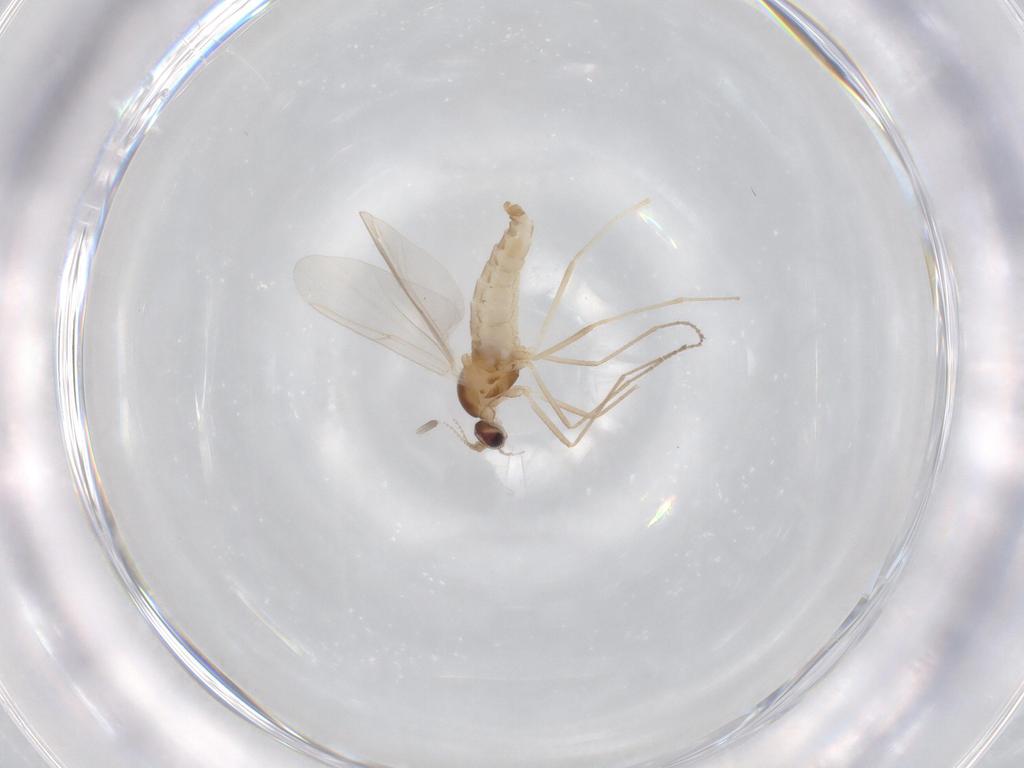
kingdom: Animalia
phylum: Arthropoda
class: Insecta
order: Diptera
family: Cecidomyiidae
